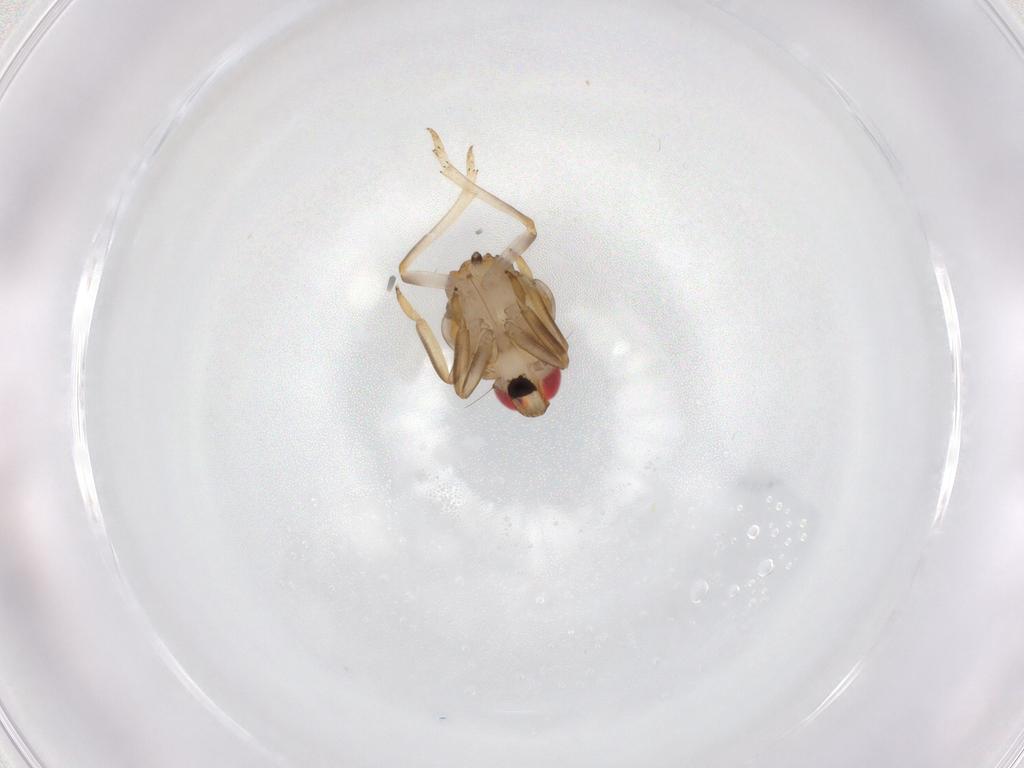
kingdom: Animalia
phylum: Arthropoda
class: Insecta
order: Hemiptera
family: Issidae
